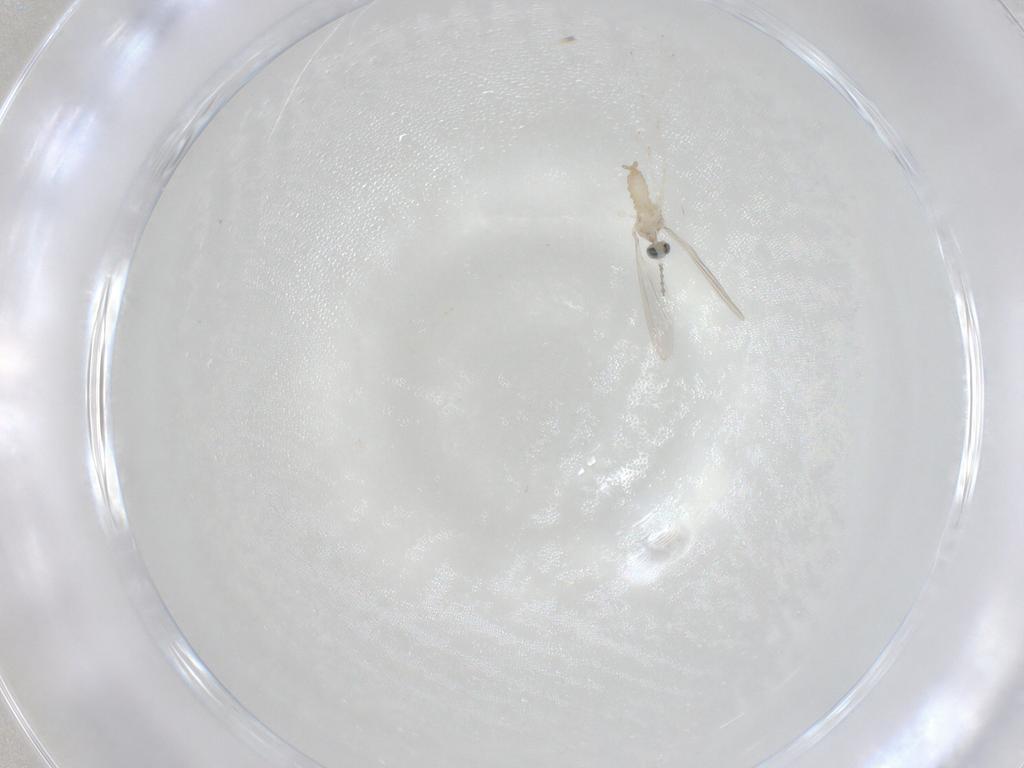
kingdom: Animalia
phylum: Arthropoda
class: Insecta
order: Diptera
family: Cecidomyiidae
